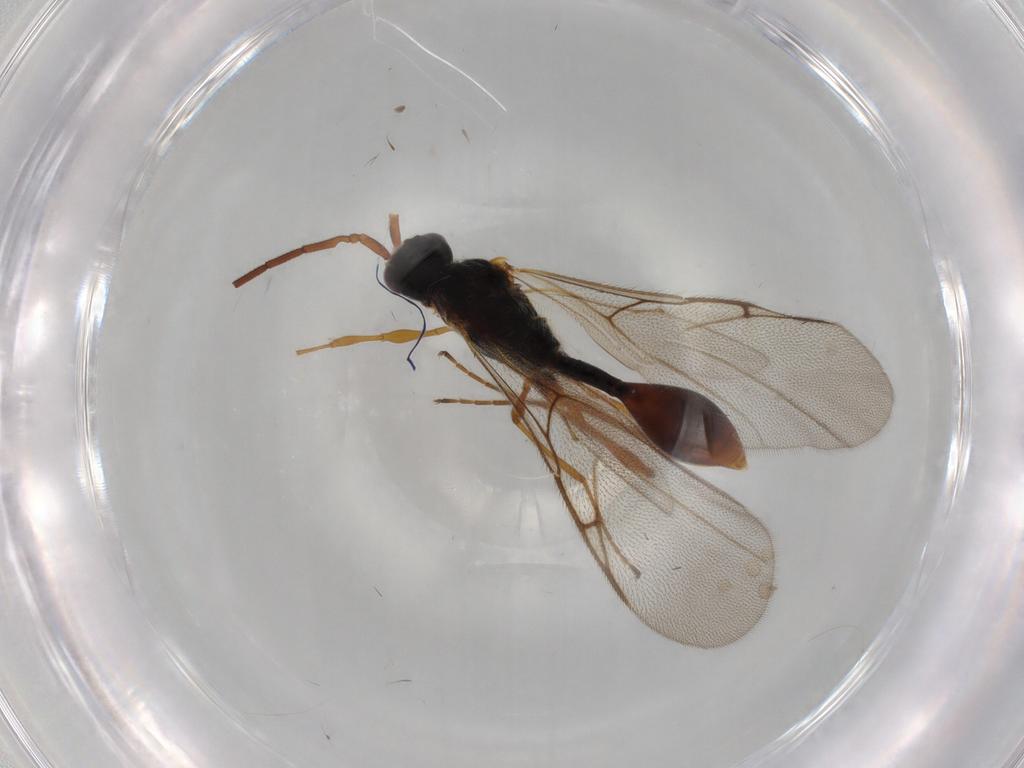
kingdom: Animalia
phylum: Arthropoda
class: Insecta
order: Hymenoptera
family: Diapriidae
